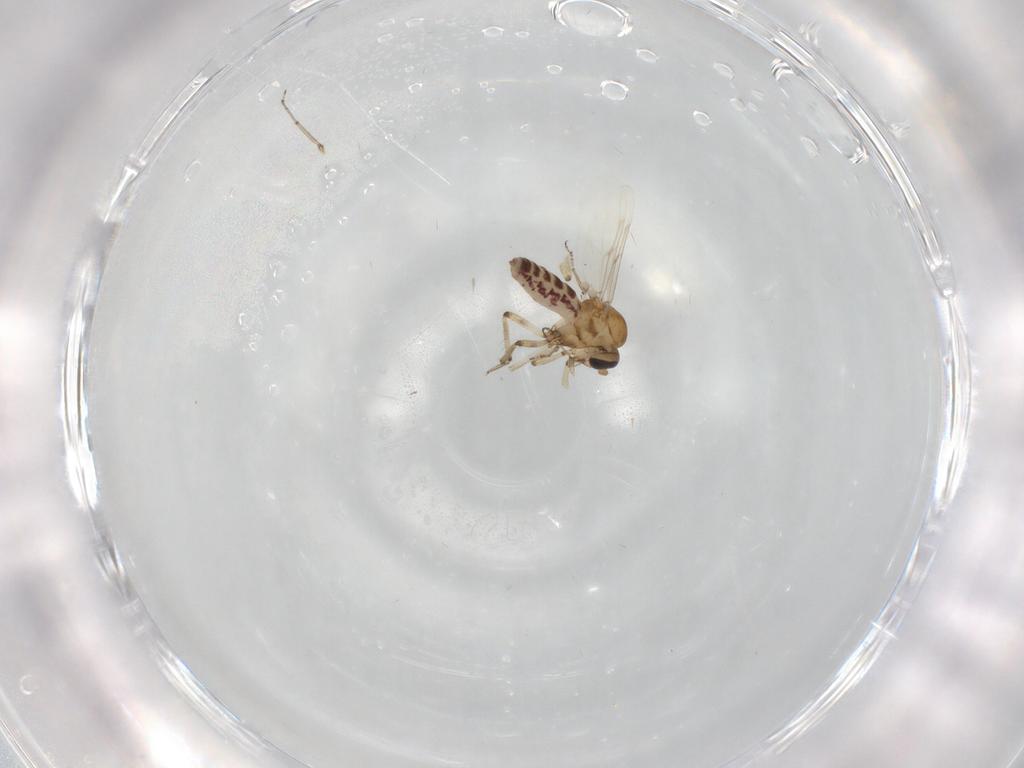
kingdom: Animalia
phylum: Arthropoda
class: Insecta
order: Diptera
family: Ceratopogonidae
